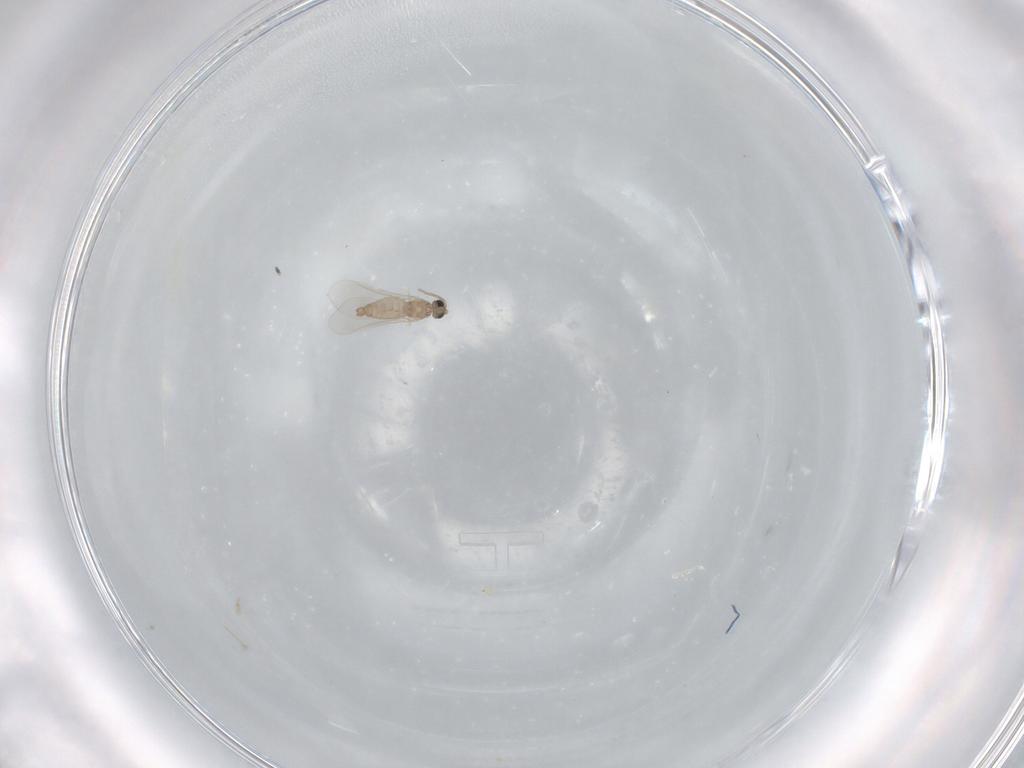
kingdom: Animalia
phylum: Arthropoda
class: Insecta
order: Diptera
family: Cecidomyiidae
